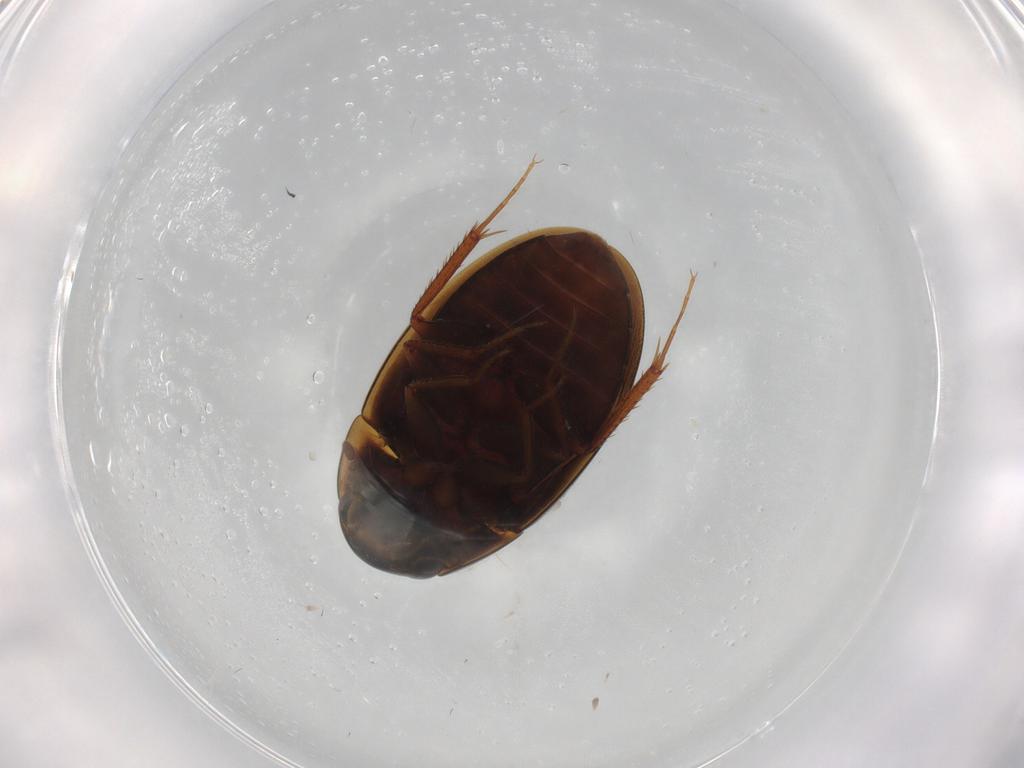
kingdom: Animalia
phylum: Arthropoda
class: Insecta
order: Coleoptera
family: Hydrophilidae
